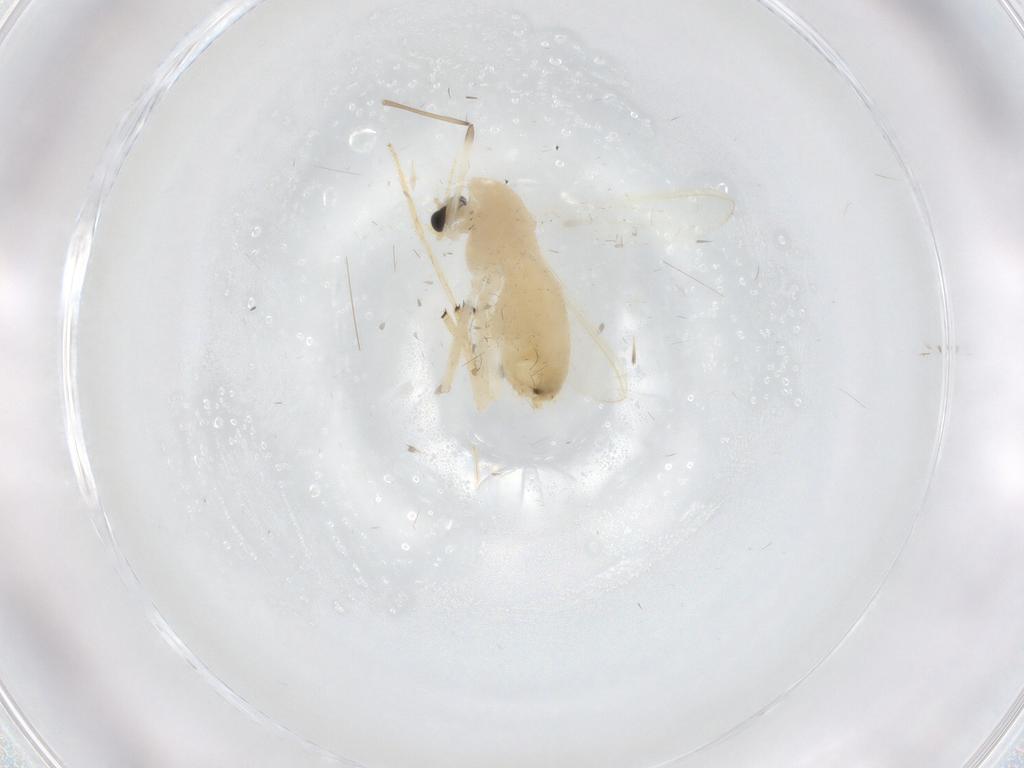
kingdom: Animalia
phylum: Arthropoda
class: Insecta
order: Diptera
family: Chironomidae
